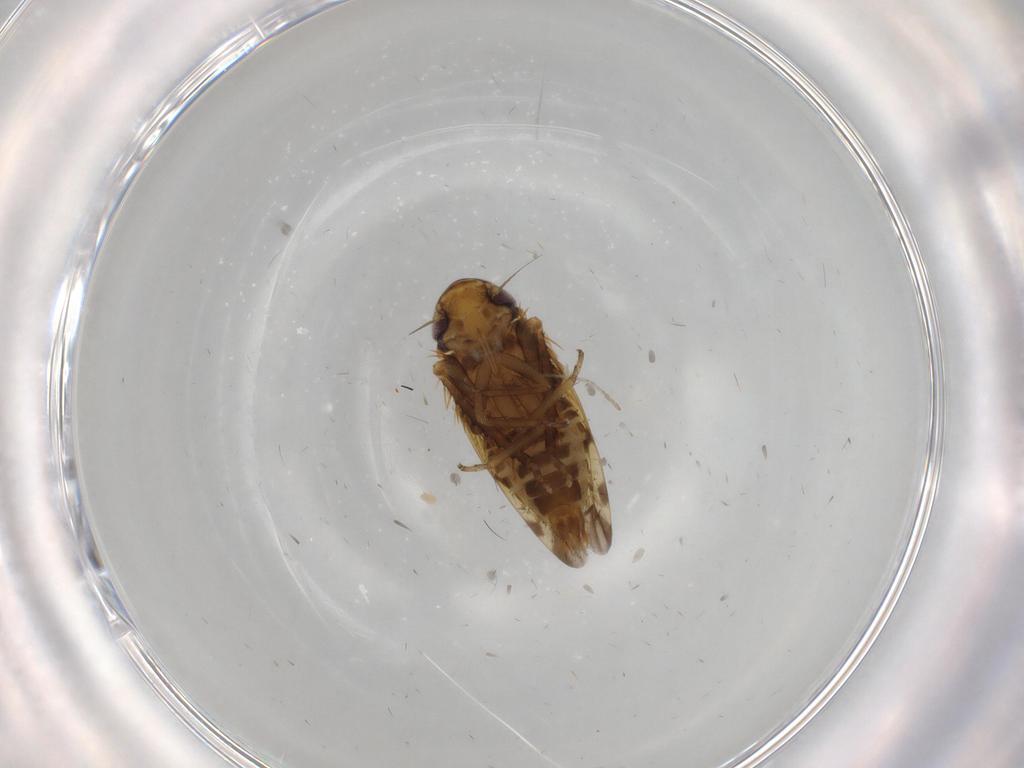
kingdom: Animalia
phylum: Arthropoda
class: Insecta
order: Hemiptera
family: Cicadellidae
